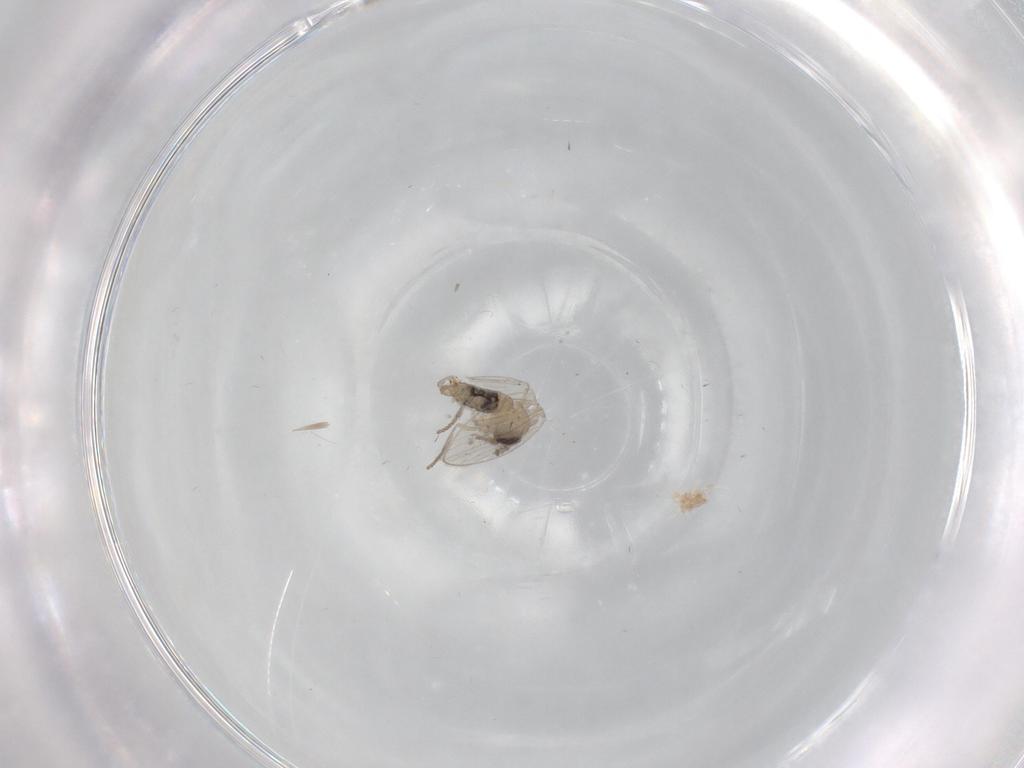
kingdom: Animalia
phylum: Arthropoda
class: Insecta
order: Diptera
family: Psychodidae
